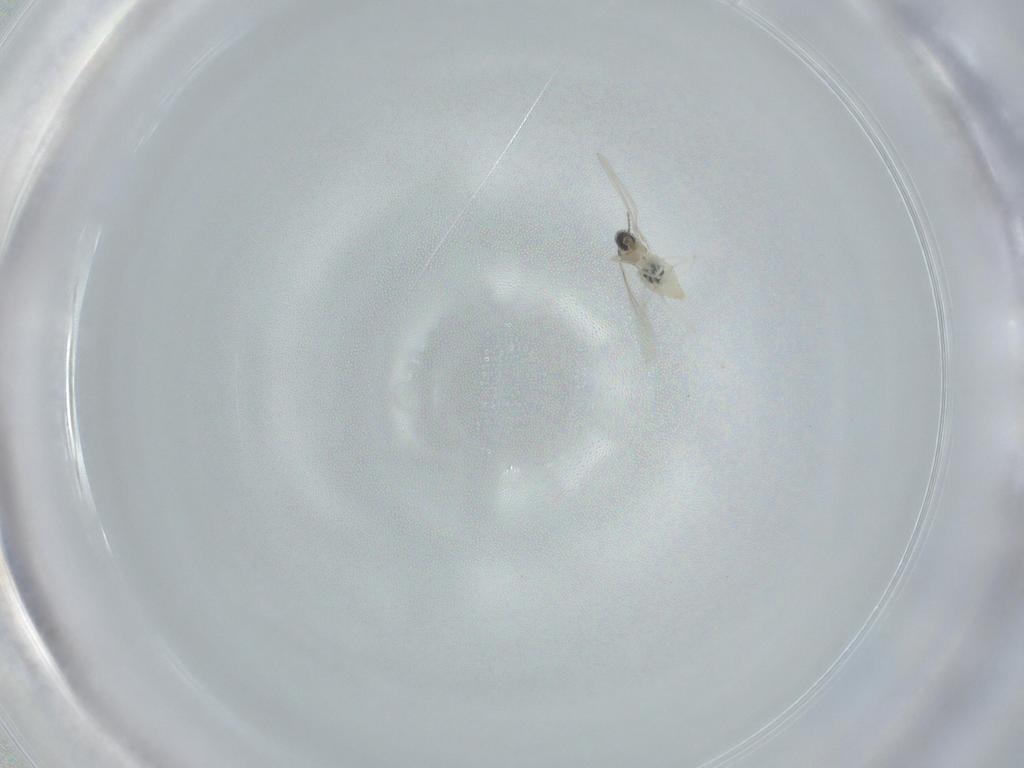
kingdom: Animalia
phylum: Arthropoda
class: Insecta
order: Diptera
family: Cecidomyiidae
